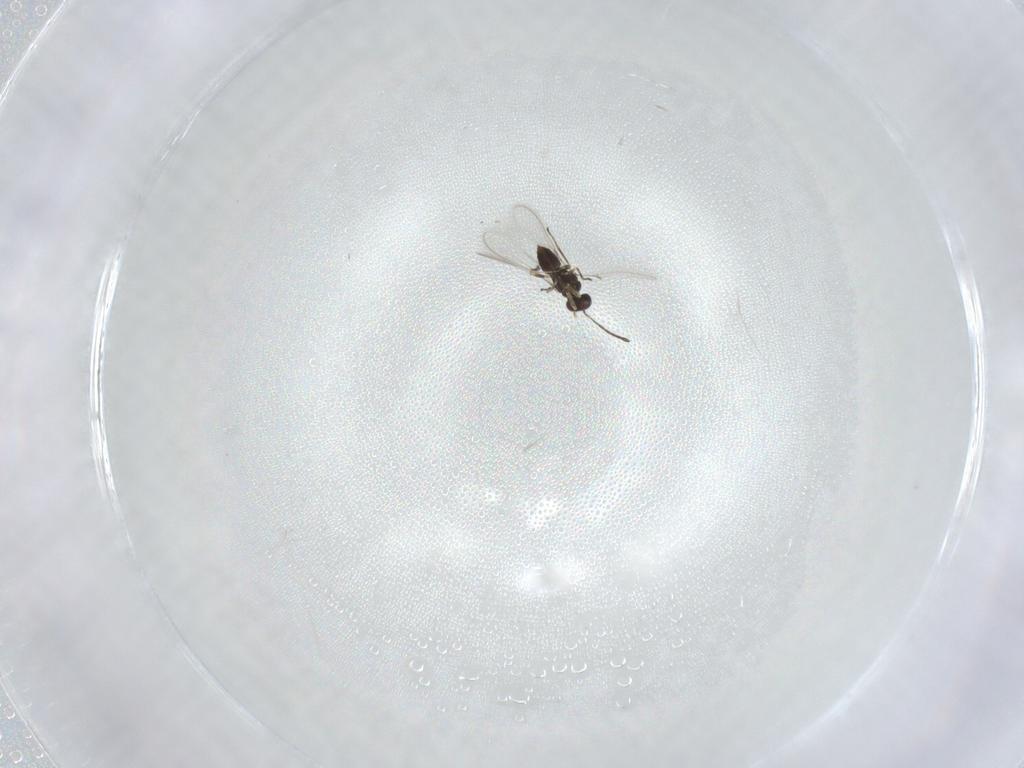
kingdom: Animalia
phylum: Arthropoda
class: Insecta
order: Hymenoptera
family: Mymaridae
